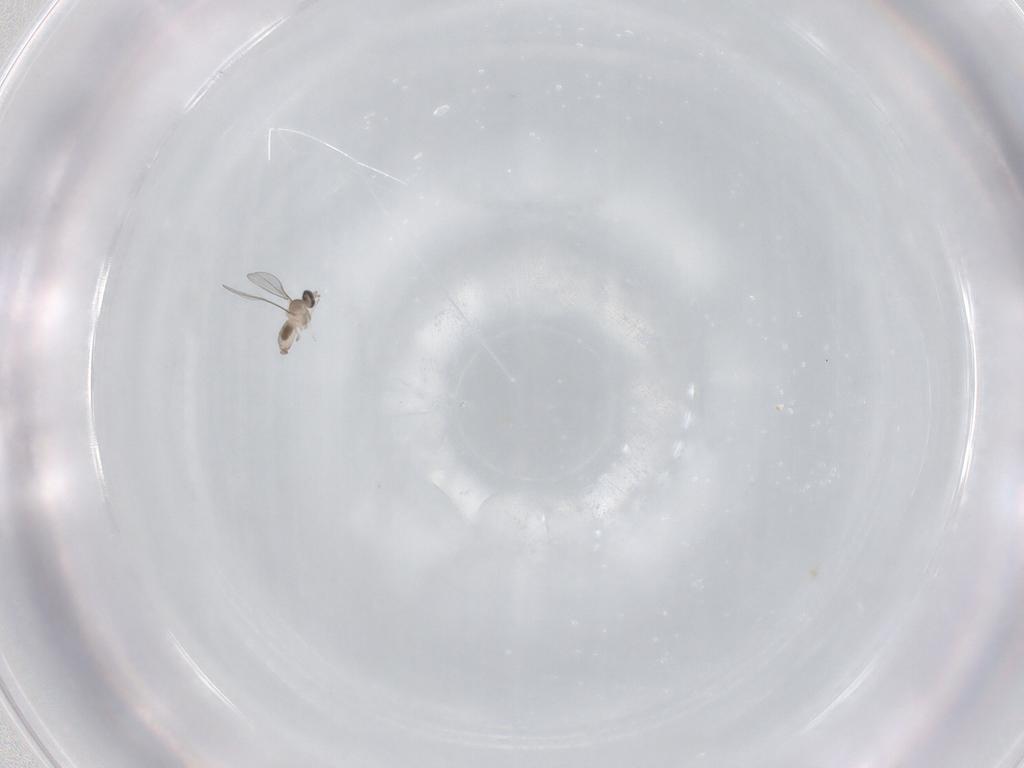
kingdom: Animalia
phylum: Arthropoda
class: Insecta
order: Diptera
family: Cecidomyiidae
